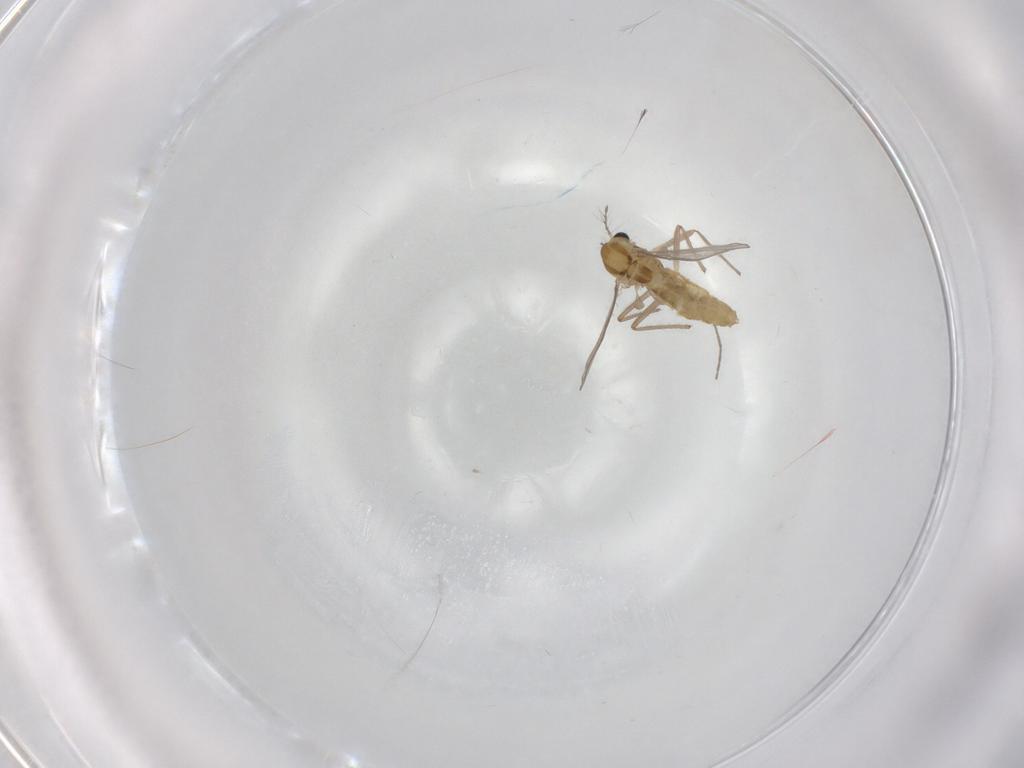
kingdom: Animalia
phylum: Arthropoda
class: Insecta
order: Diptera
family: Chironomidae
